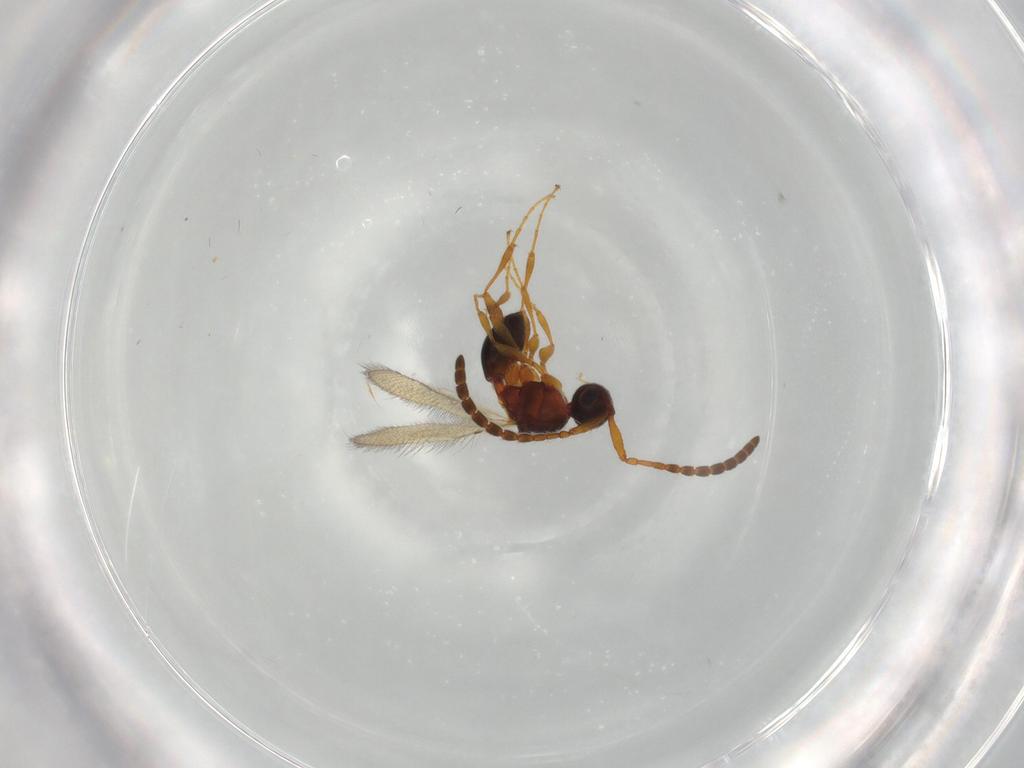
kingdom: Animalia
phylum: Arthropoda
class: Insecta
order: Hymenoptera
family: Diapriidae
